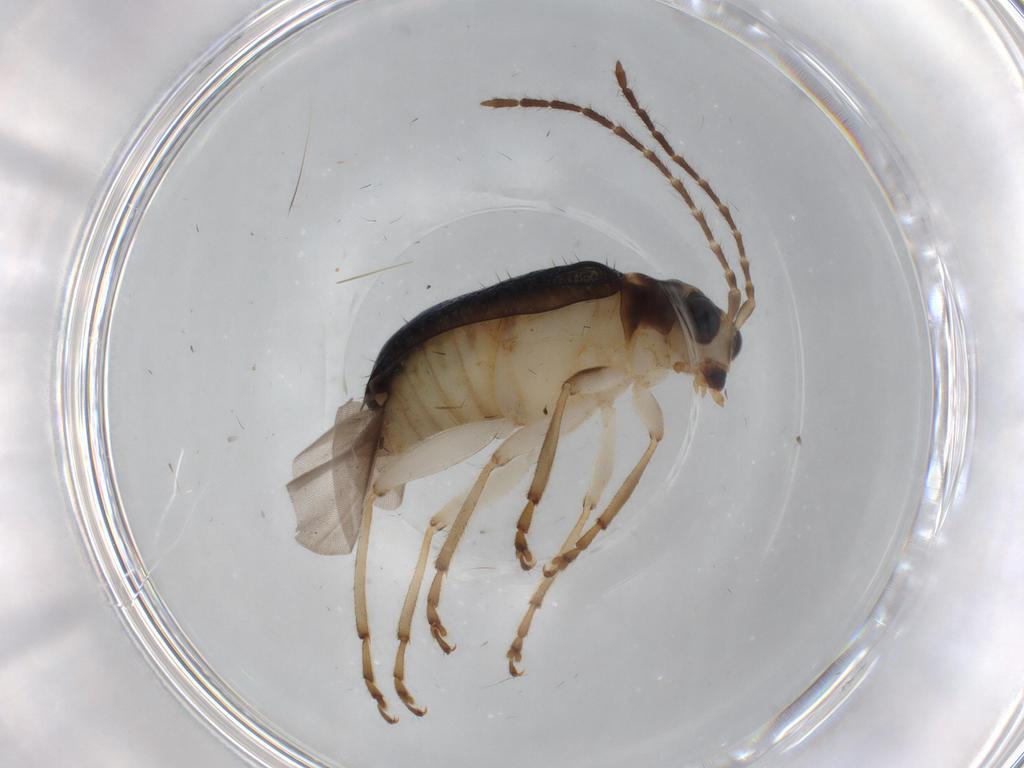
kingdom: Animalia
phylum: Arthropoda
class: Insecta
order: Coleoptera
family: Chrysomelidae
